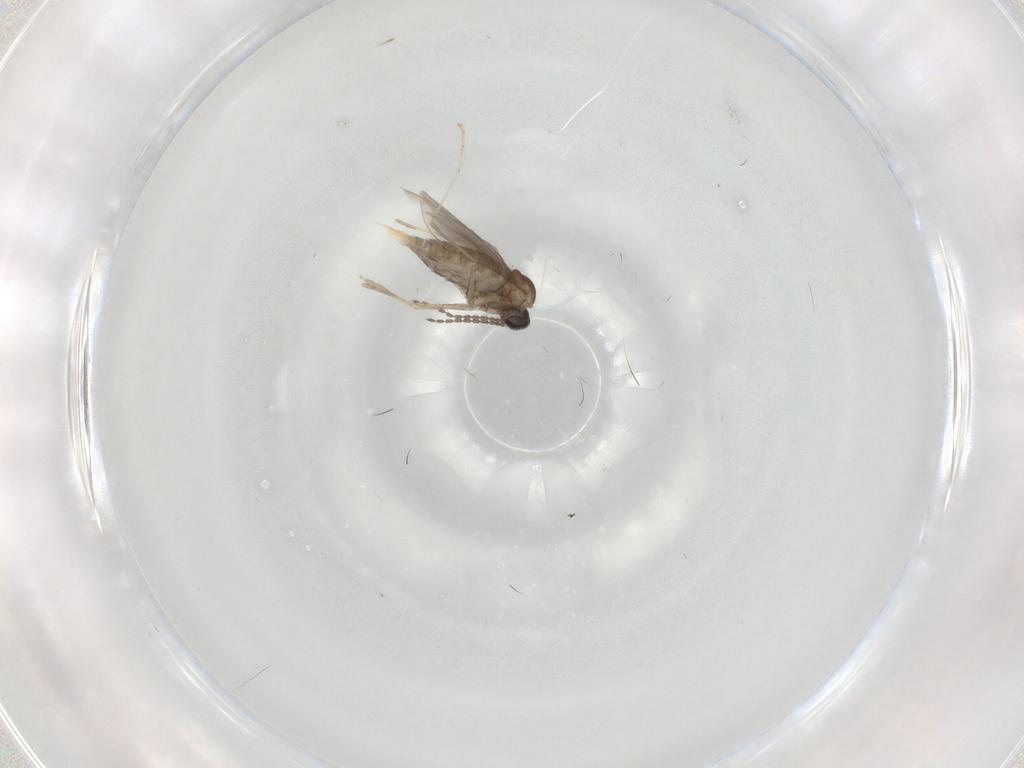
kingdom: Animalia
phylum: Arthropoda
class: Insecta
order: Diptera
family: Cecidomyiidae
